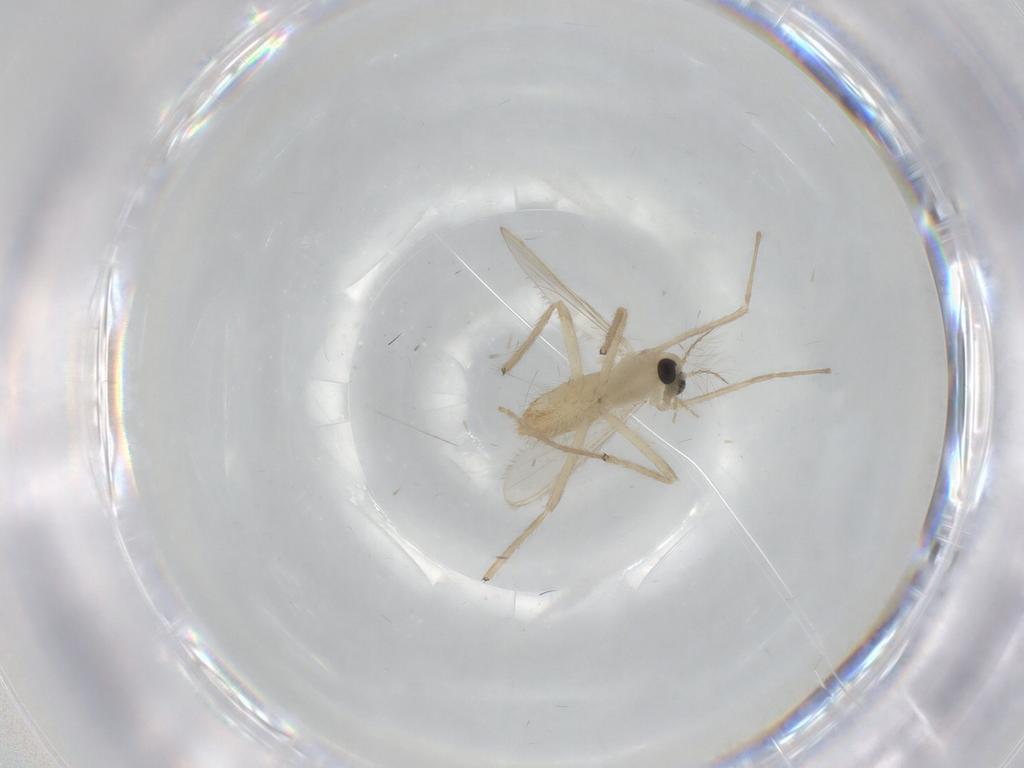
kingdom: Animalia
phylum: Arthropoda
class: Insecta
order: Diptera
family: Chironomidae
